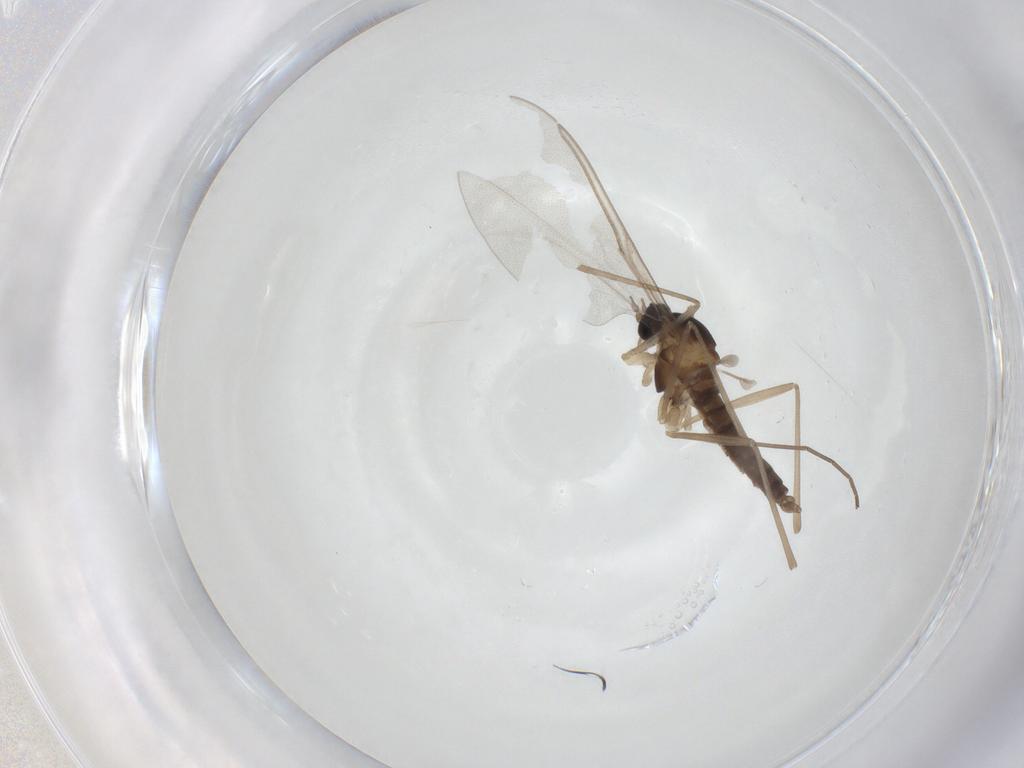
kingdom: Animalia
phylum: Arthropoda
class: Insecta
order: Diptera
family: Cecidomyiidae
